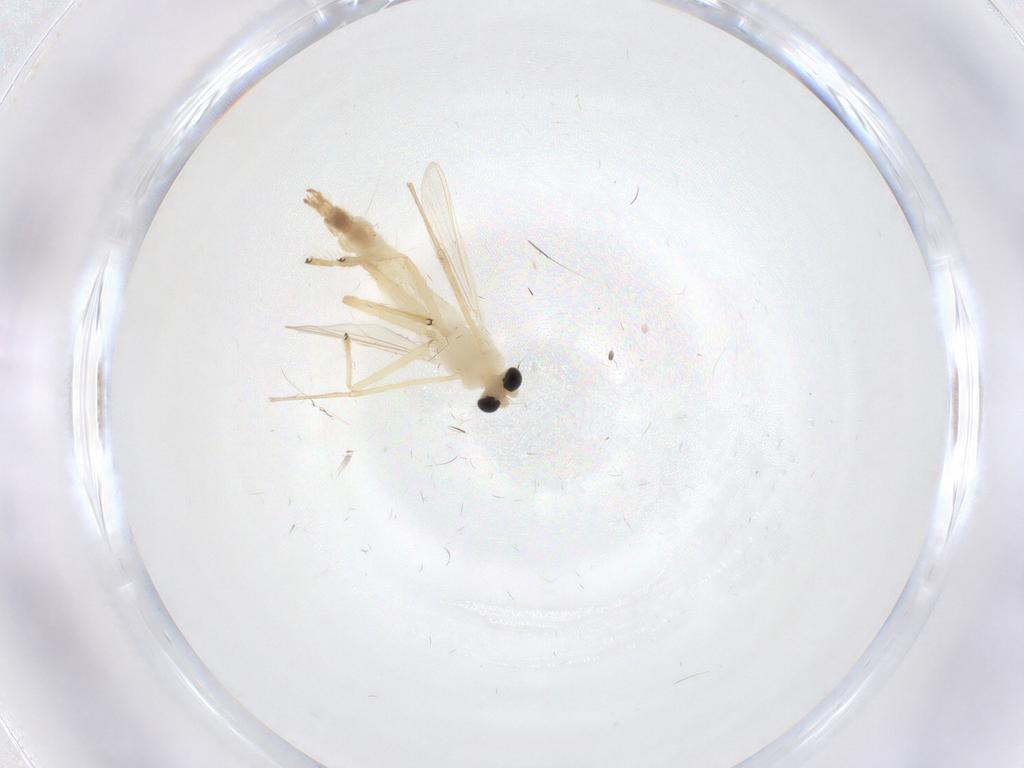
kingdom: Animalia
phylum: Arthropoda
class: Insecta
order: Diptera
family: Chironomidae
